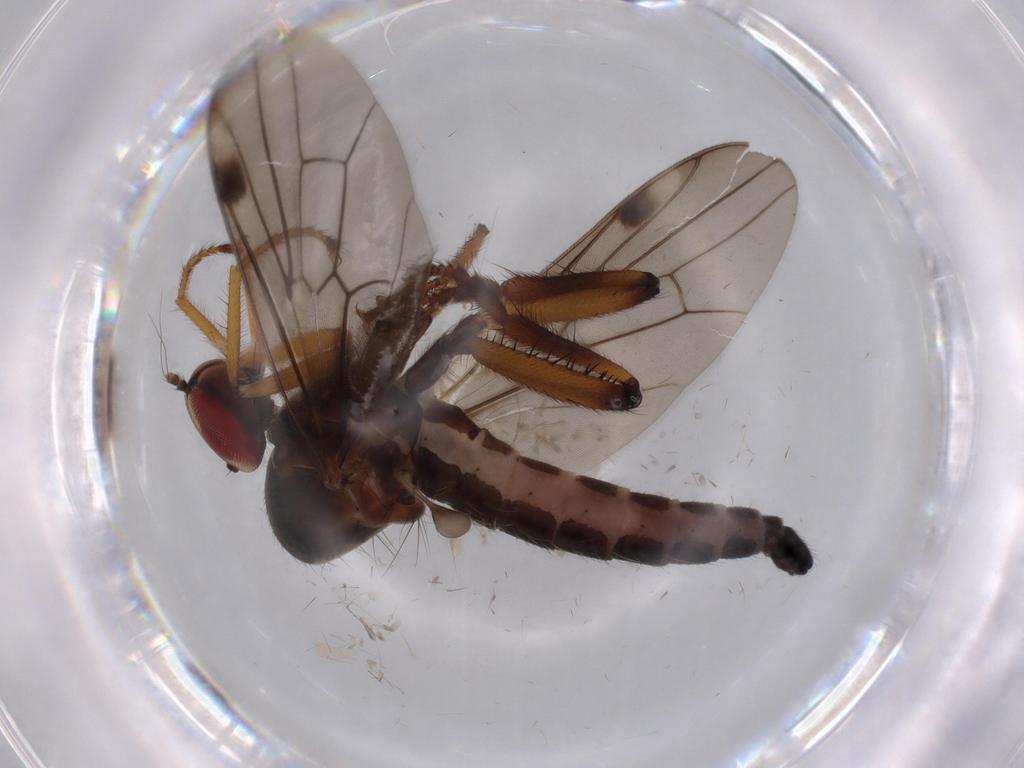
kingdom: Animalia
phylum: Arthropoda
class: Insecta
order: Diptera
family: Hybotidae
